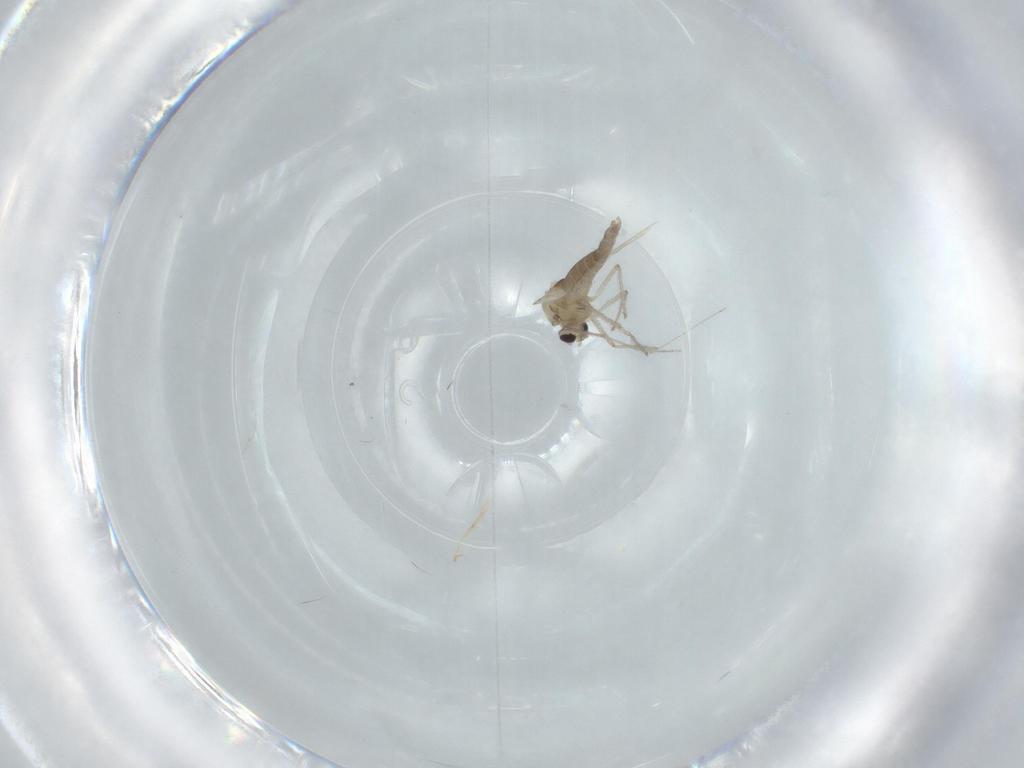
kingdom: Animalia
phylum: Arthropoda
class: Insecta
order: Diptera
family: Chironomidae
